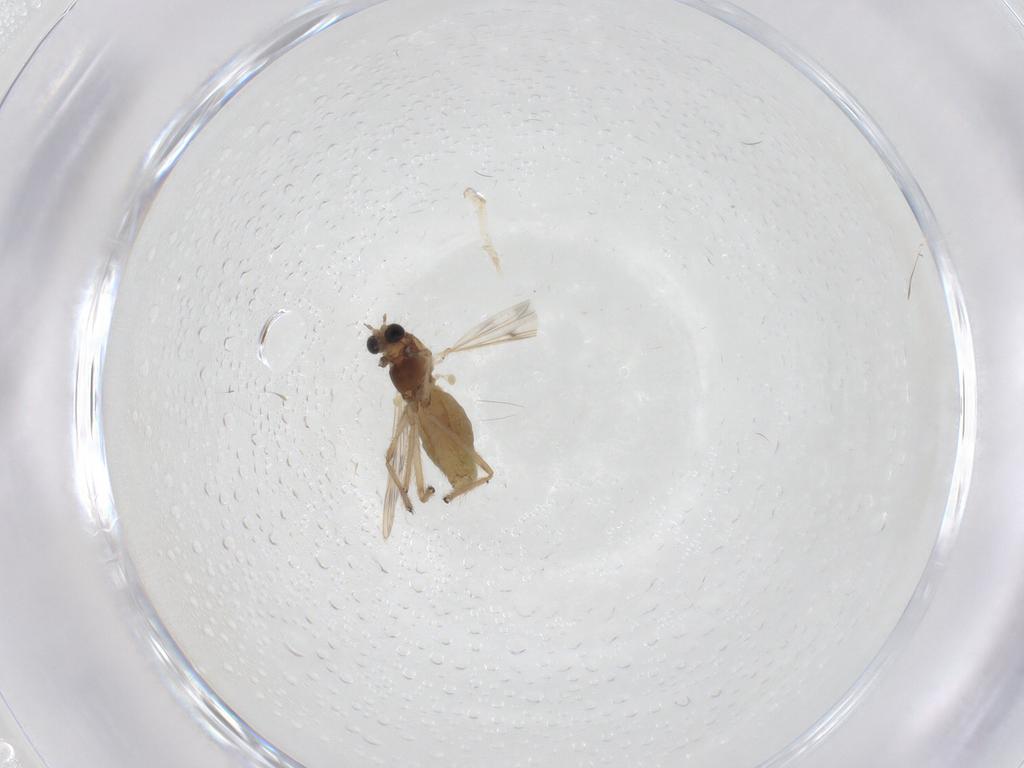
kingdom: Animalia
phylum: Arthropoda
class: Insecta
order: Diptera
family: Chironomidae
